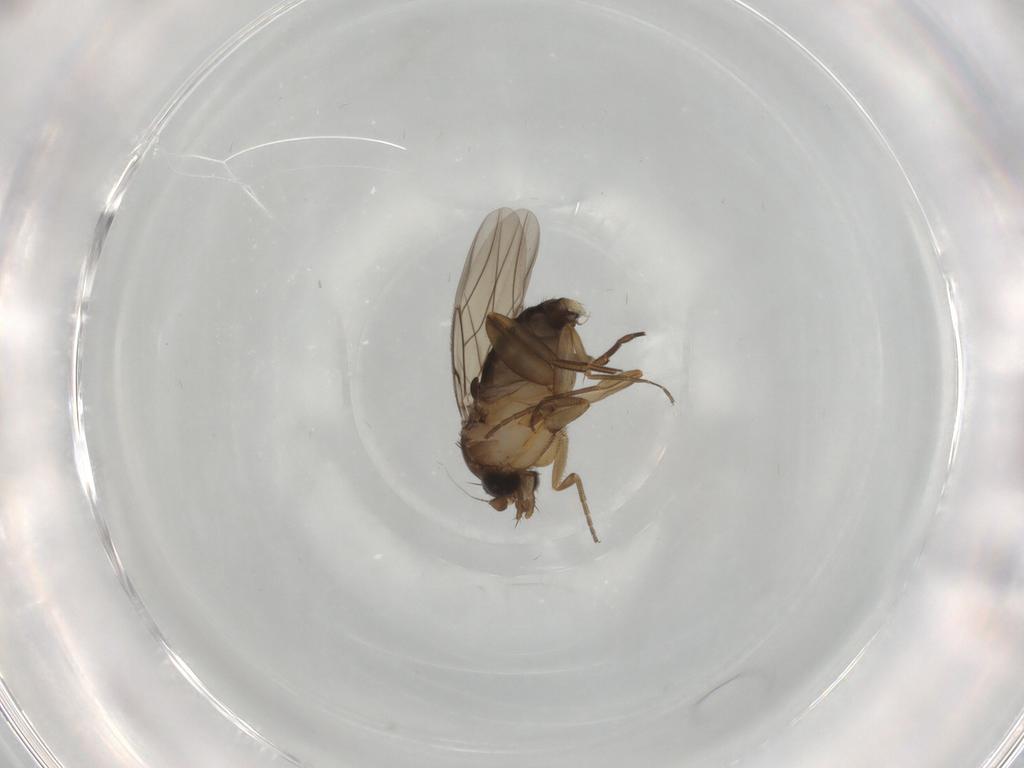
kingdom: Animalia
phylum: Arthropoda
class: Insecta
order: Diptera
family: Phoridae
